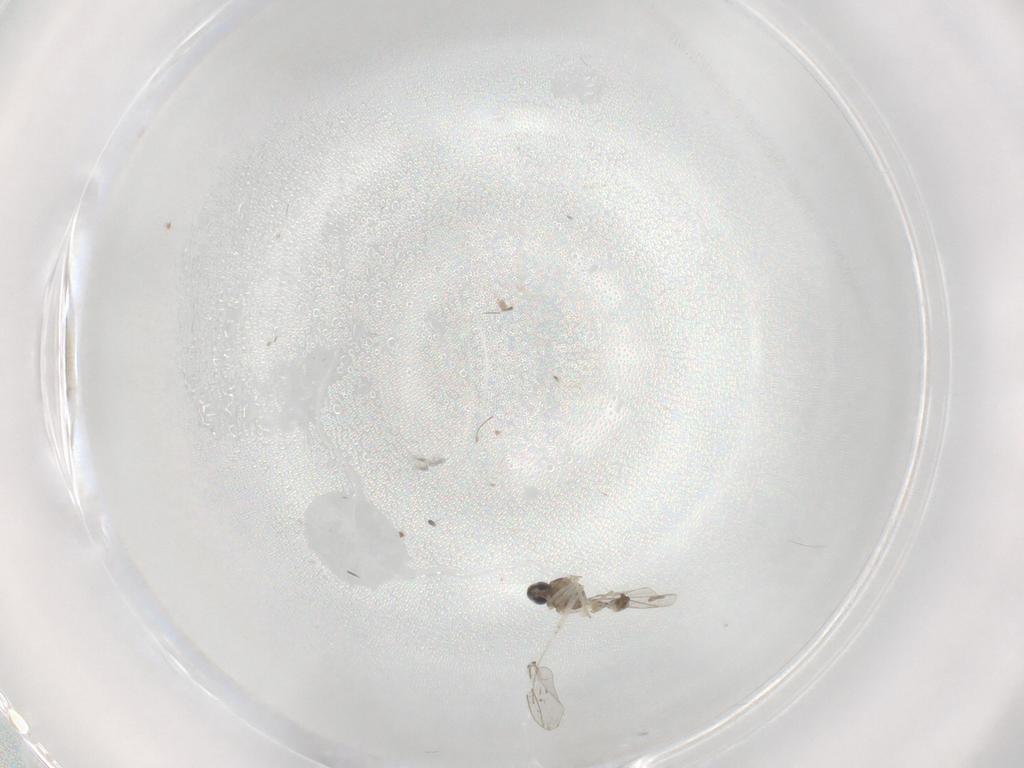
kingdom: Animalia
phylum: Arthropoda
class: Insecta
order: Diptera
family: Cecidomyiidae
